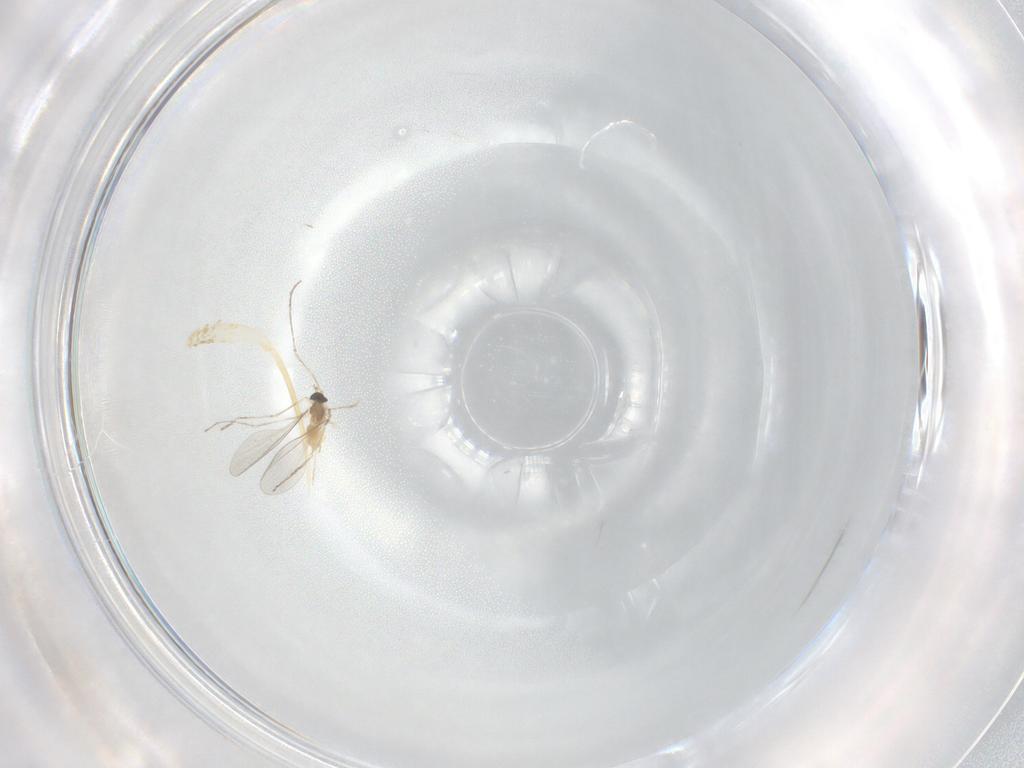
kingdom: Animalia
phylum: Arthropoda
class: Insecta
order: Diptera
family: Cecidomyiidae
